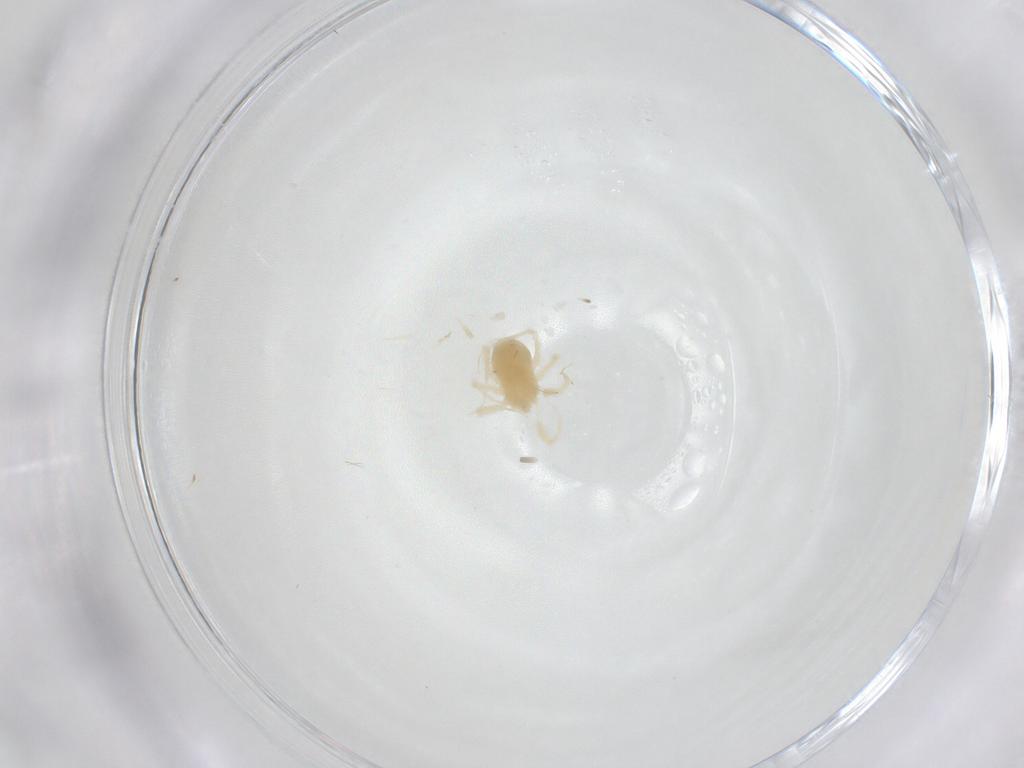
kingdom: Animalia
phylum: Arthropoda
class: Arachnida
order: Trombidiformes
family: Anystidae
